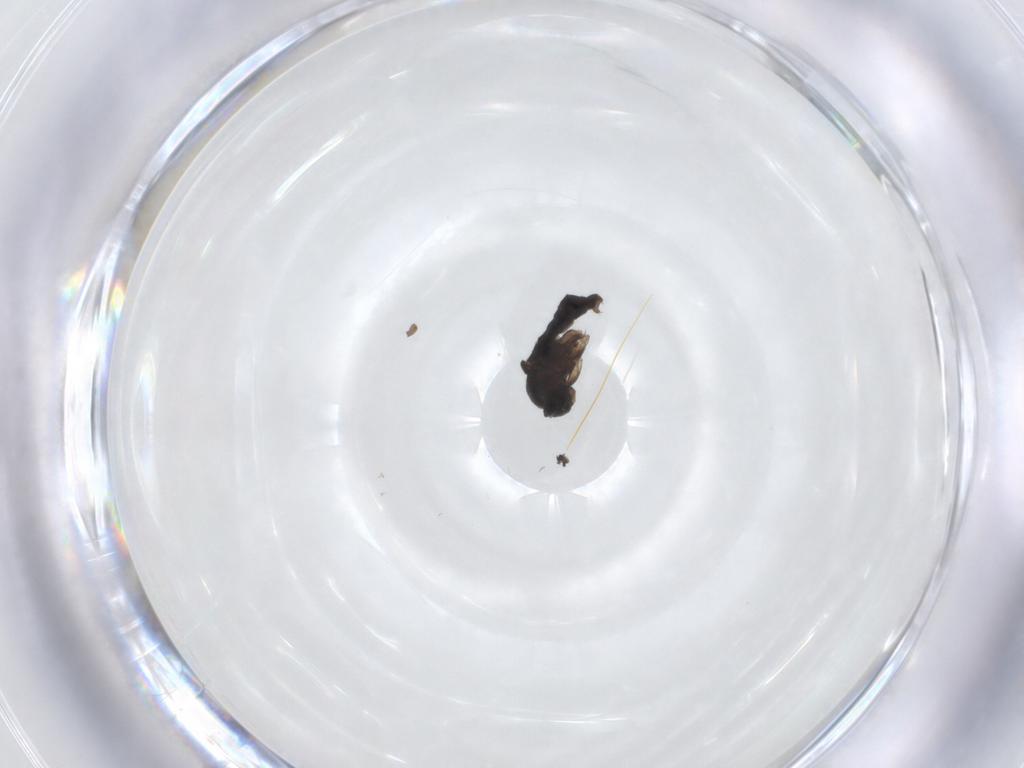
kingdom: Animalia
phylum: Arthropoda
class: Insecta
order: Diptera
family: Phoridae
